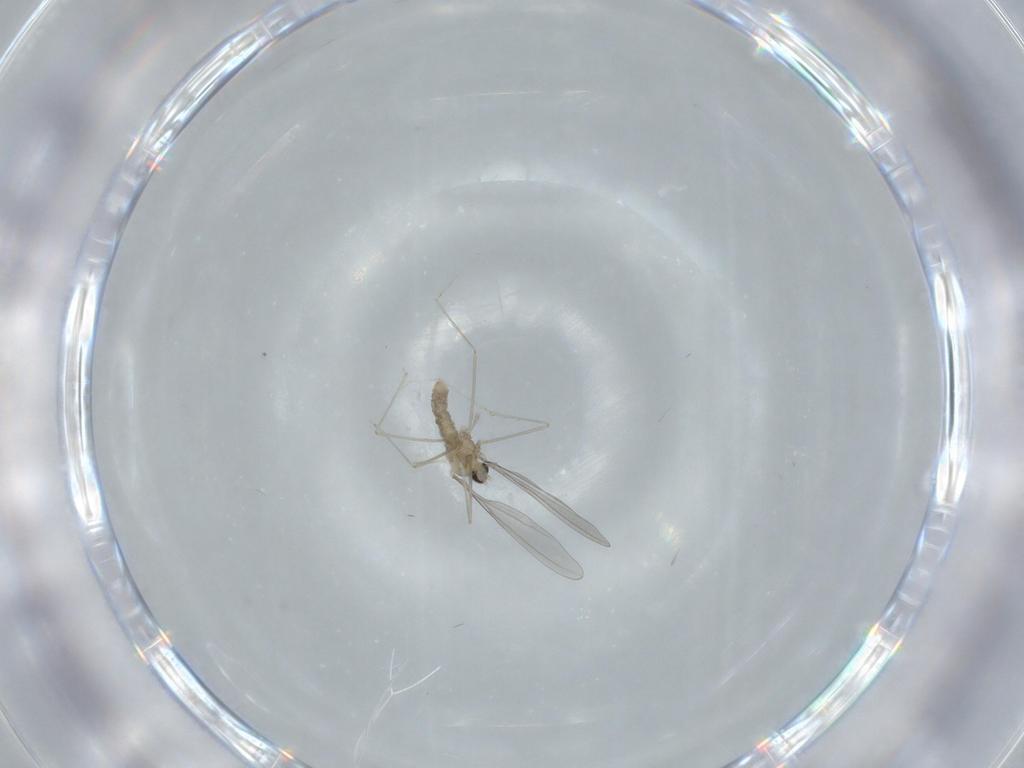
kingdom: Animalia
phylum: Arthropoda
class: Insecta
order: Diptera
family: Cecidomyiidae
